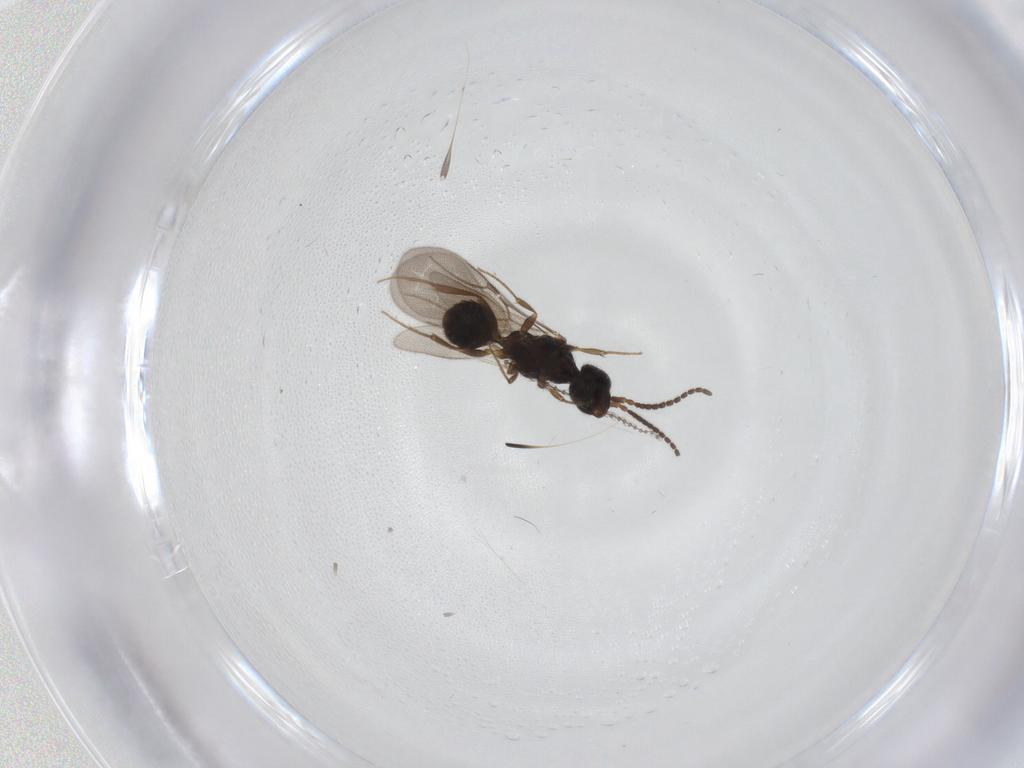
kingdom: Animalia
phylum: Arthropoda
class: Insecta
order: Hymenoptera
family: Bethylidae
